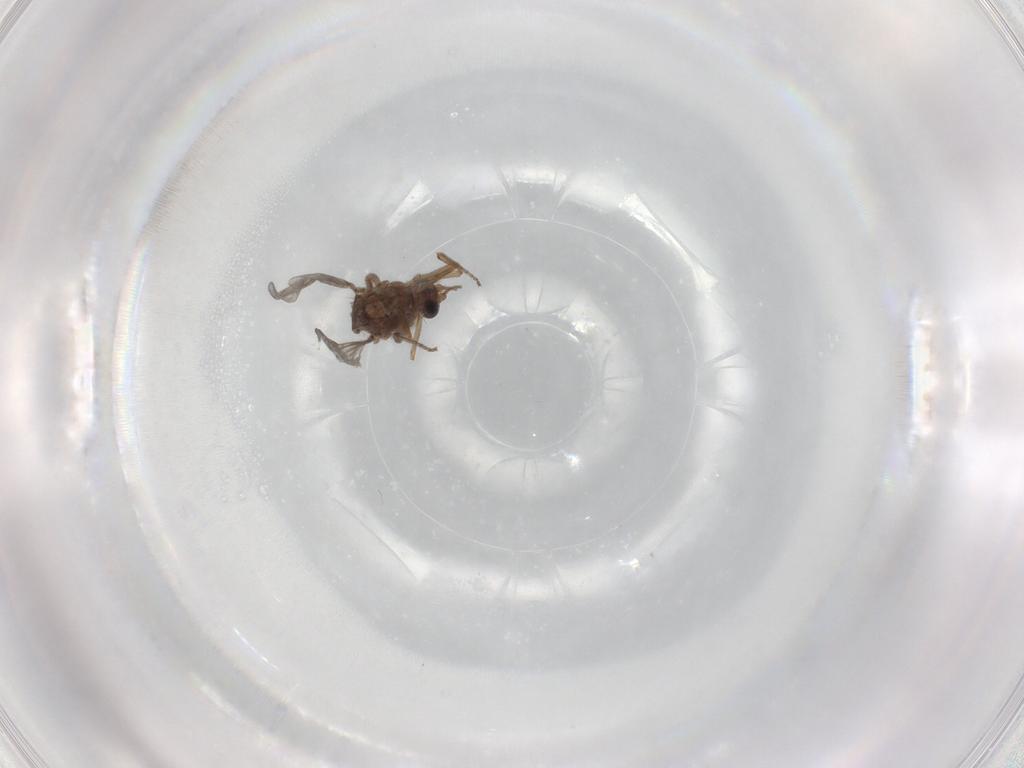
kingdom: Animalia
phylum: Arthropoda
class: Insecta
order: Diptera
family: Ceratopogonidae
